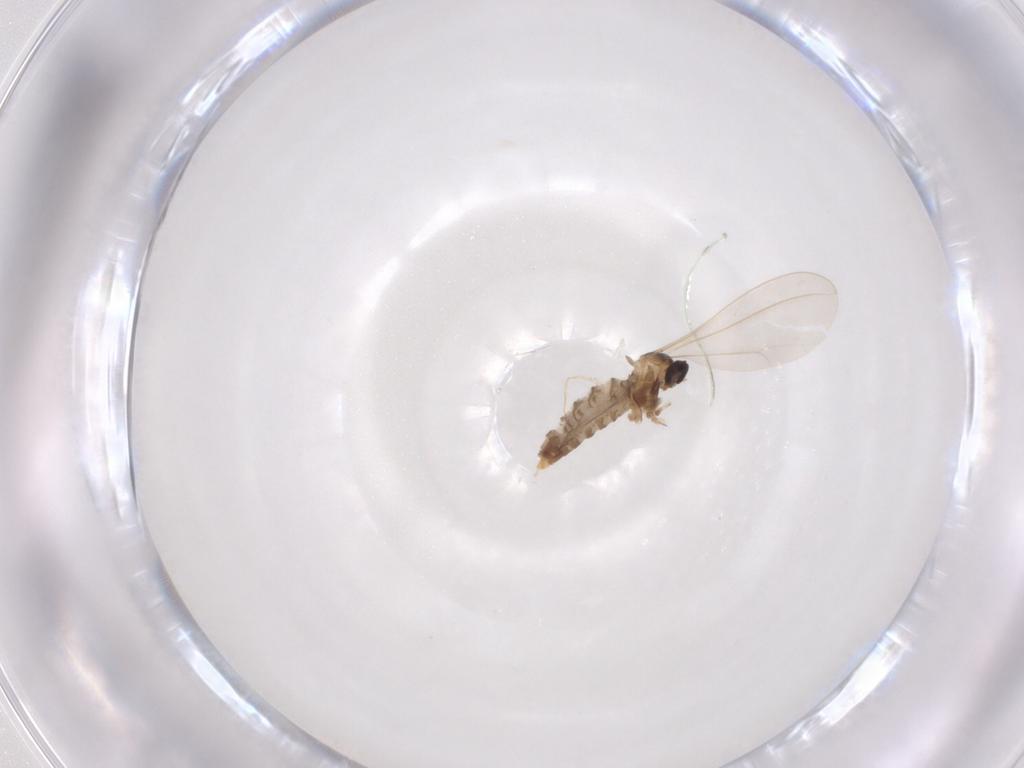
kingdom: Animalia
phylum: Arthropoda
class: Insecta
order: Diptera
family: Cecidomyiidae
